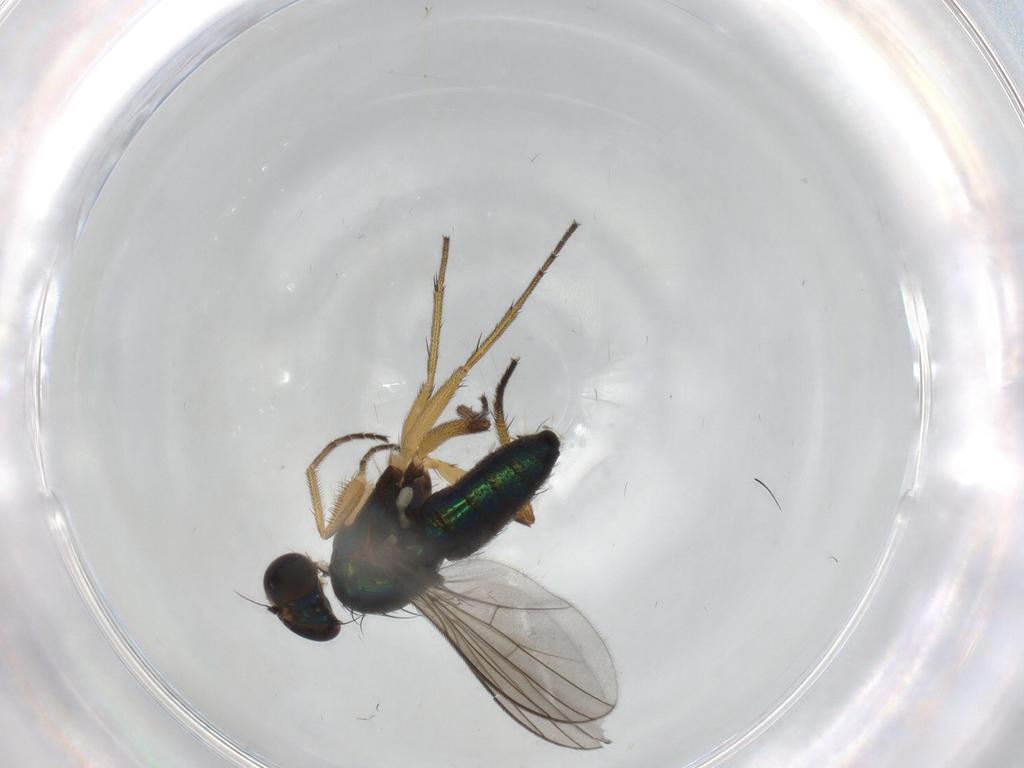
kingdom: Animalia
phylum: Arthropoda
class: Insecta
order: Diptera
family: Dolichopodidae
